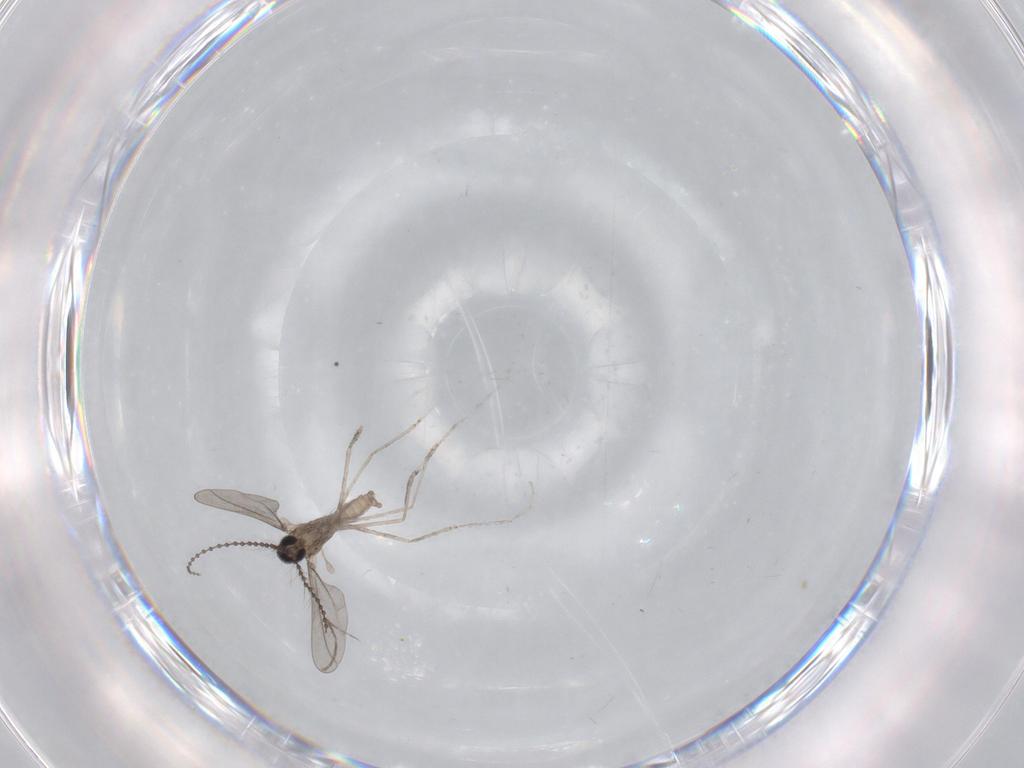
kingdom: Animalia
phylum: Arthropoda
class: Insecta
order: Diptera
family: Cecidomyiidae
